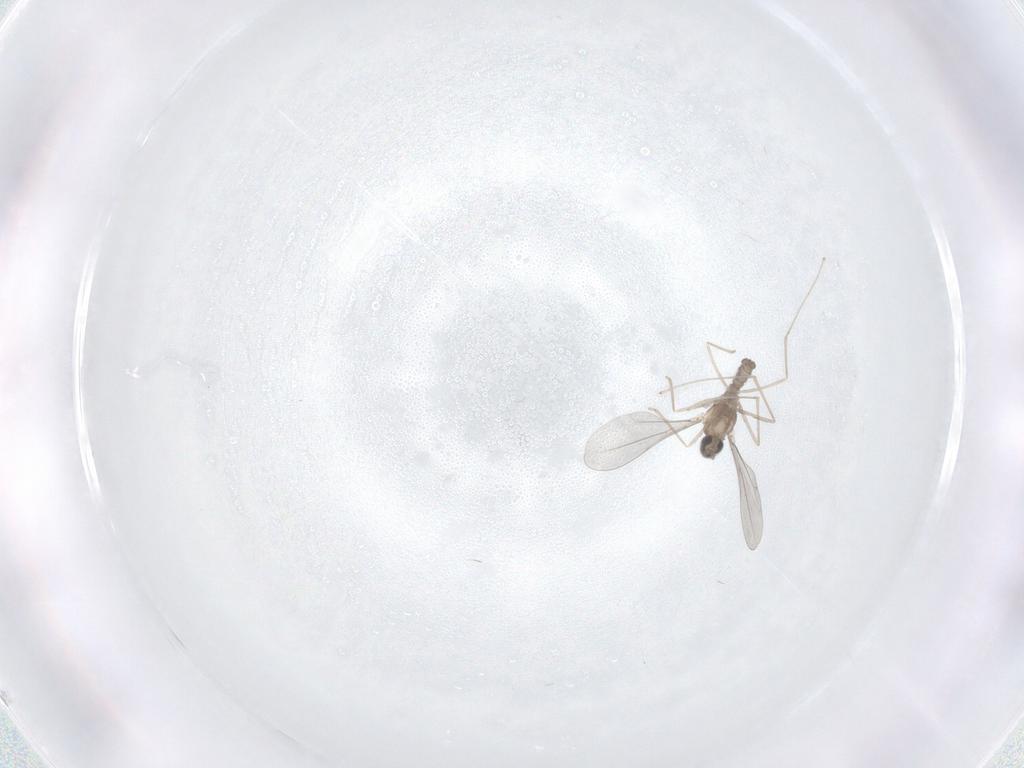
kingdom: Animalia
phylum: Arthropoda
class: Insecta
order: Diptera
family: Cecidomyiidae
